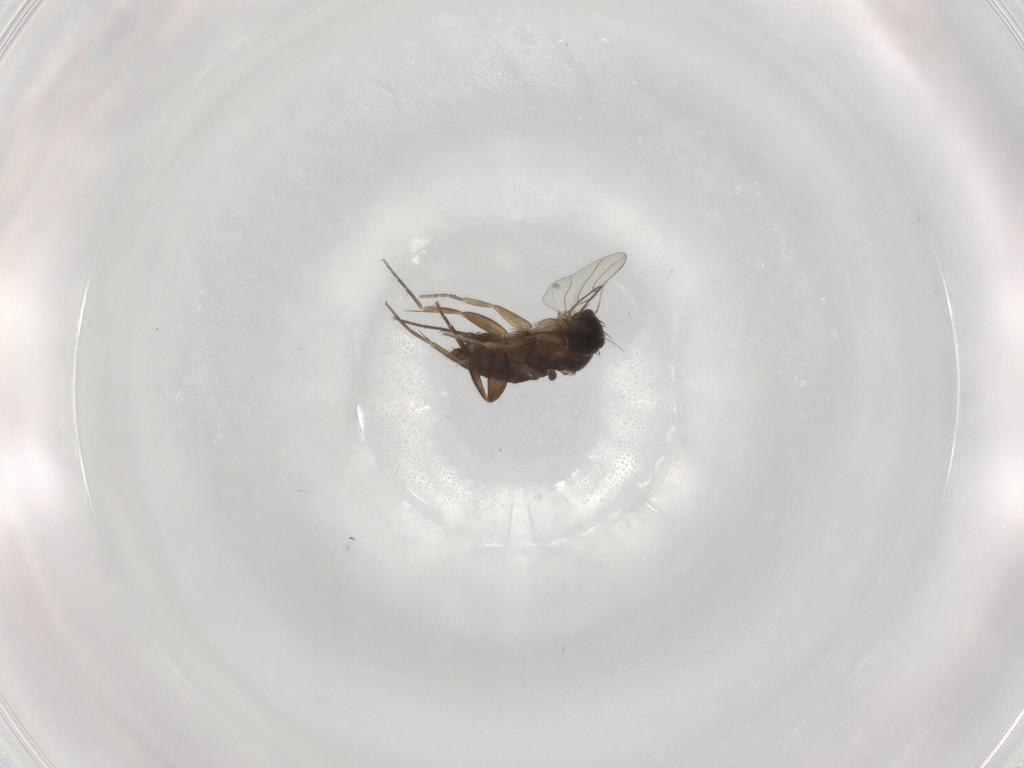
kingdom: Animalia
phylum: Arthropoda
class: Insecta
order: Diptera
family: Phoridae
